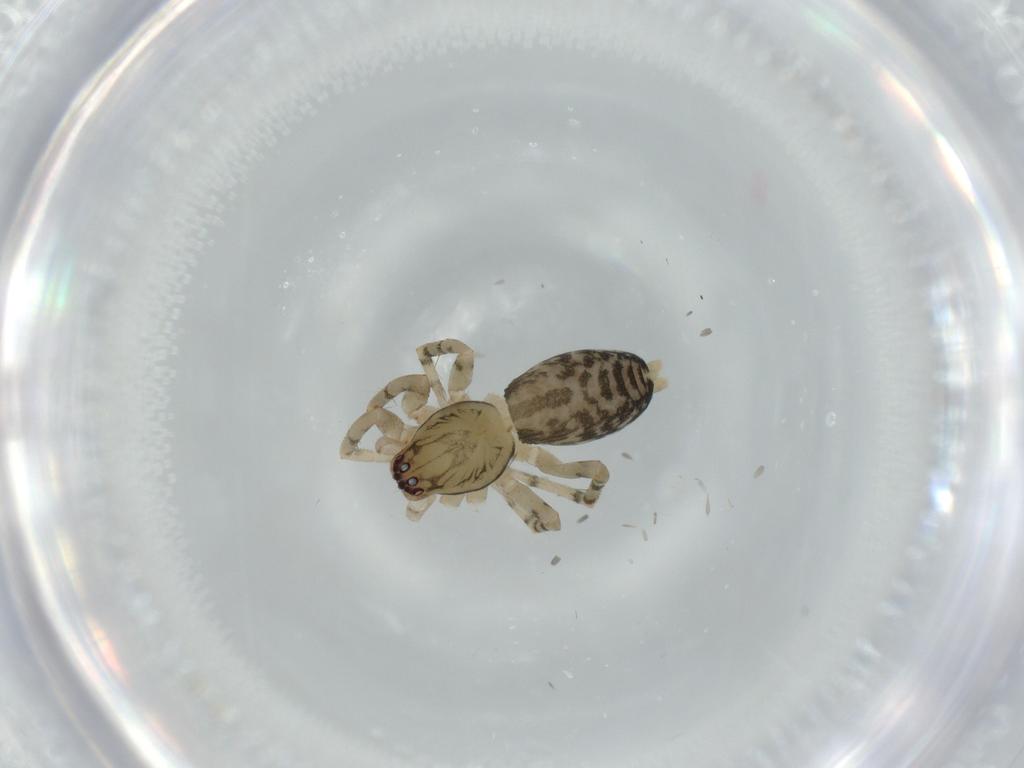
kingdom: Animalia
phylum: Arthropoda
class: Arachnida
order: Araneae
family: Clubionidae
